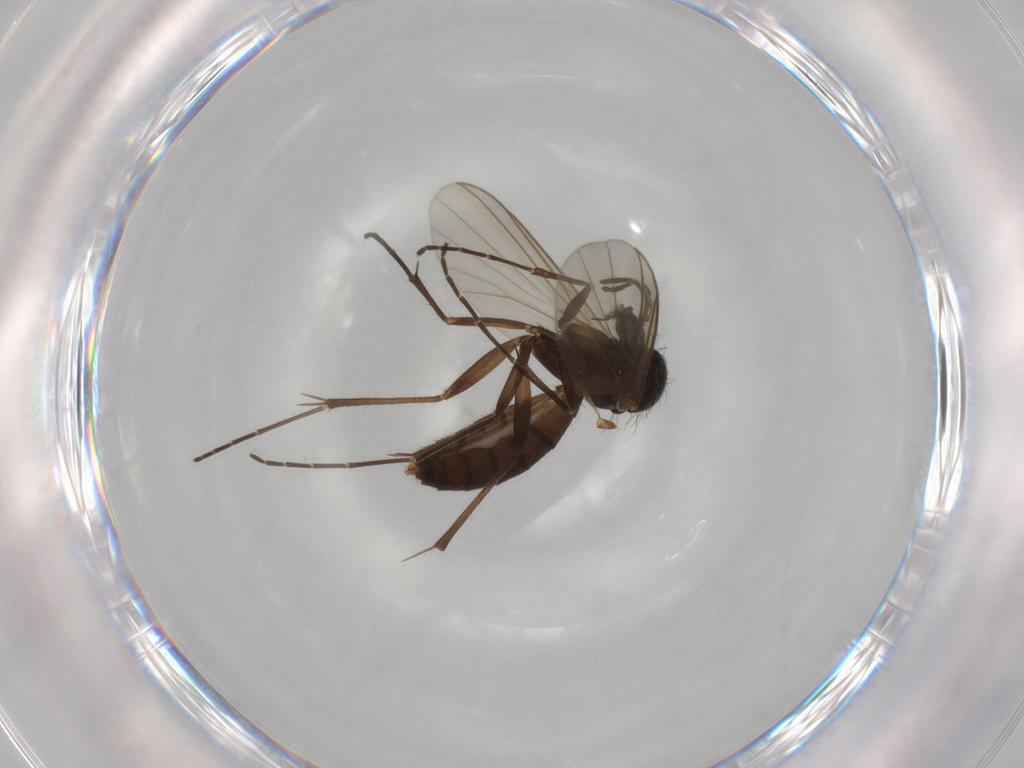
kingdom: Animalia
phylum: Arthropoda
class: Insecta
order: Diptera
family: Mycetophilidae
